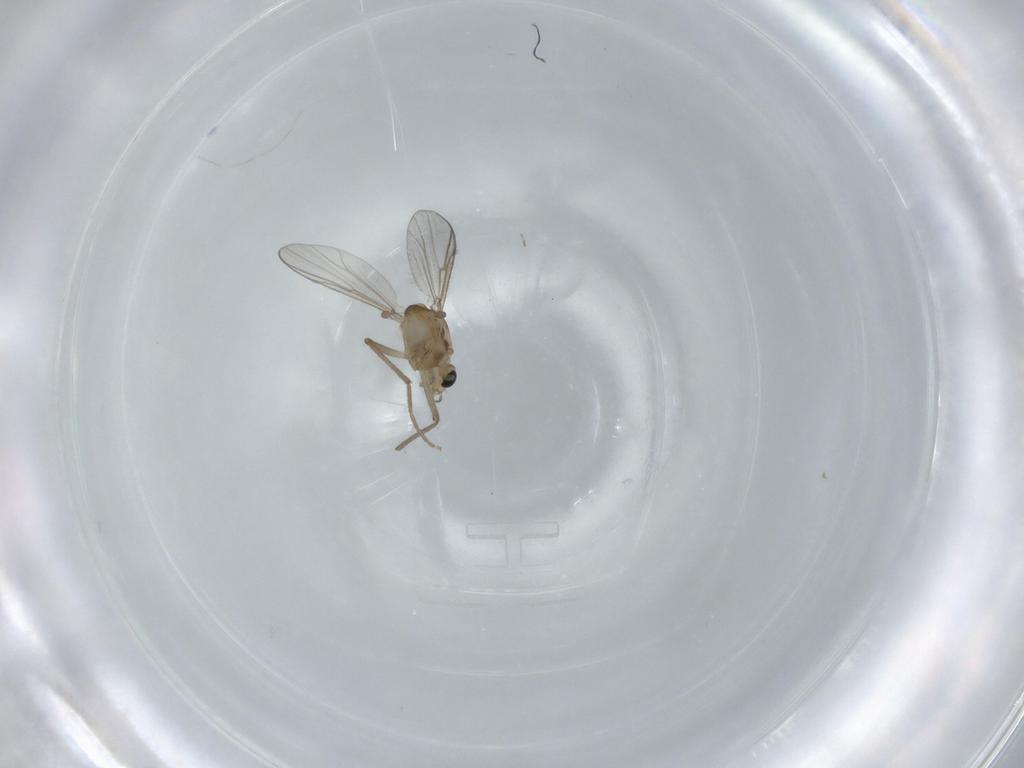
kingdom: Animalia
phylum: Arthropoda
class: Insecta
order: Diptera
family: Chironomidae
